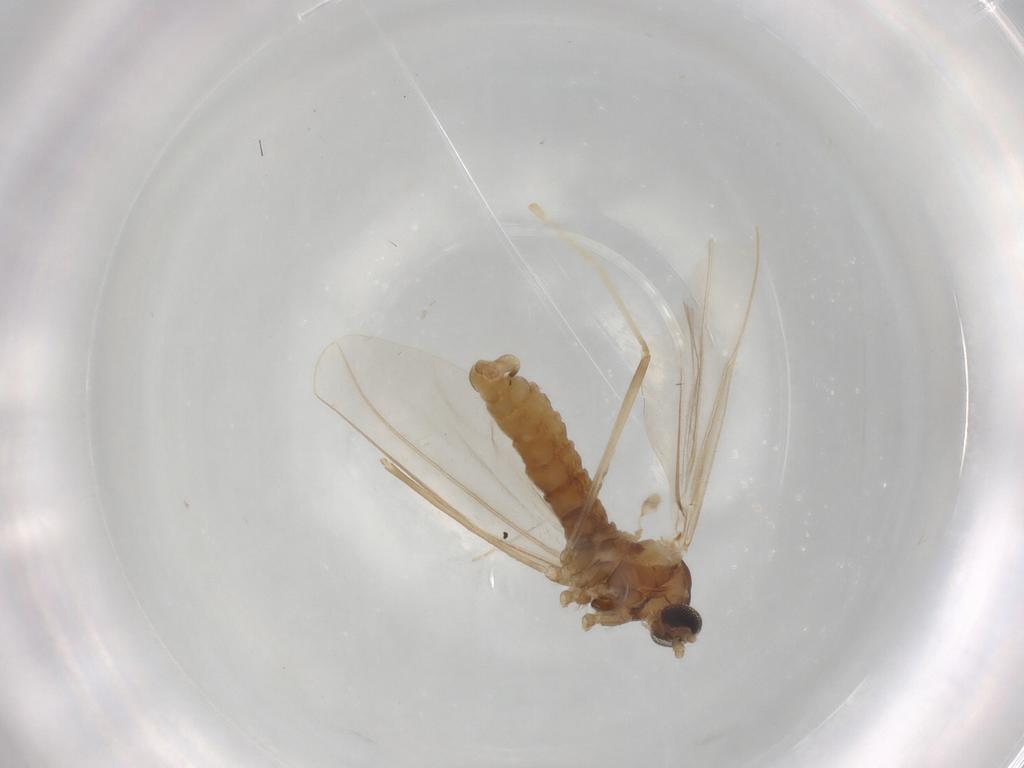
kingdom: Animalia
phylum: Arthropoda
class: Insecta
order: Diptera
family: Cecidomyiidae
